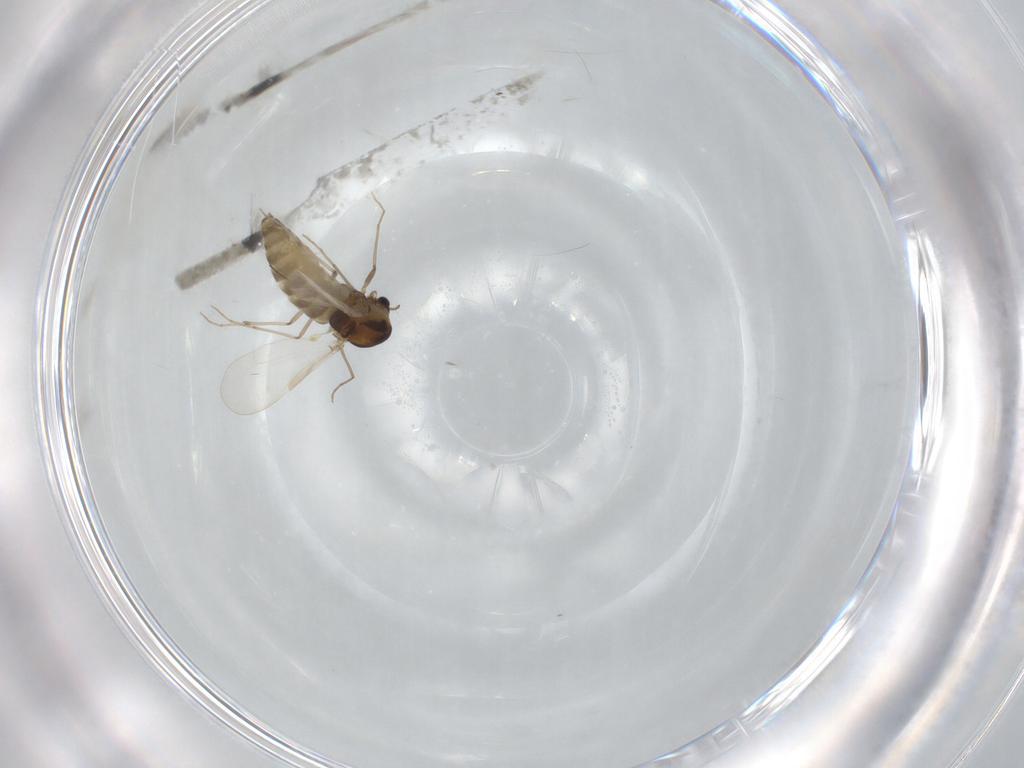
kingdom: Animalia
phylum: Arthropoda
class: Insecta
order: Diptera
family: Chironomidae
